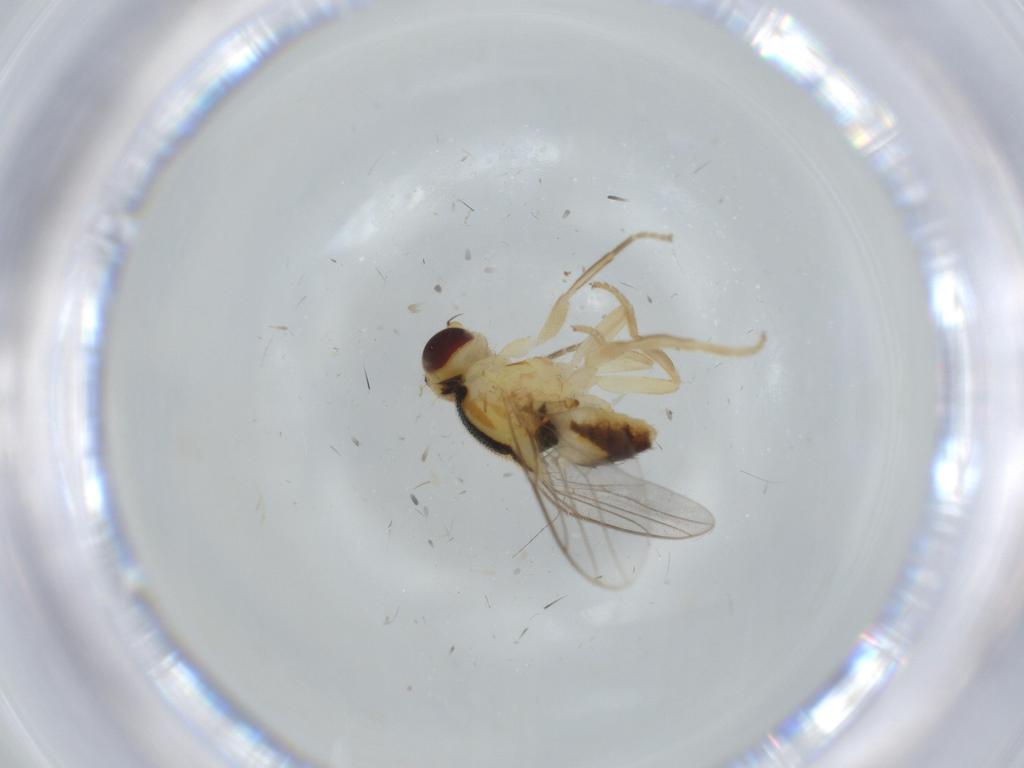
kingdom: Animalia
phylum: Arthropoda
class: Insecta
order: Diptera
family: Chloropidae
